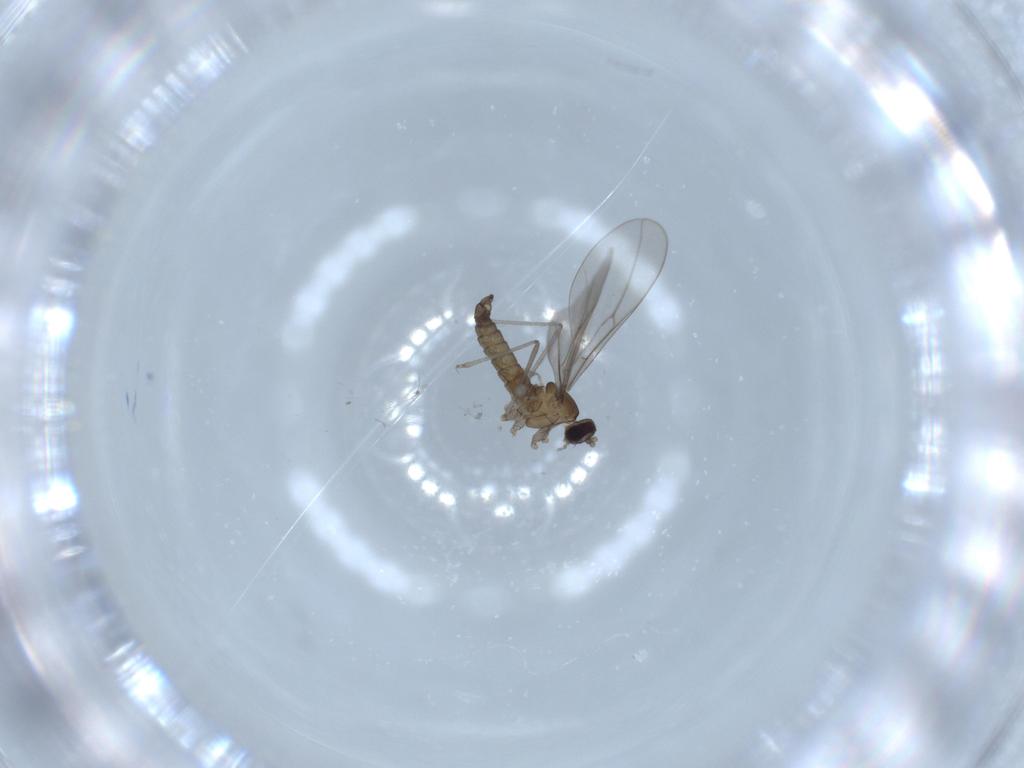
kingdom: Animalia
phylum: Arthropoda
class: Insecta
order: Diptera
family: Cecidomyiidae
